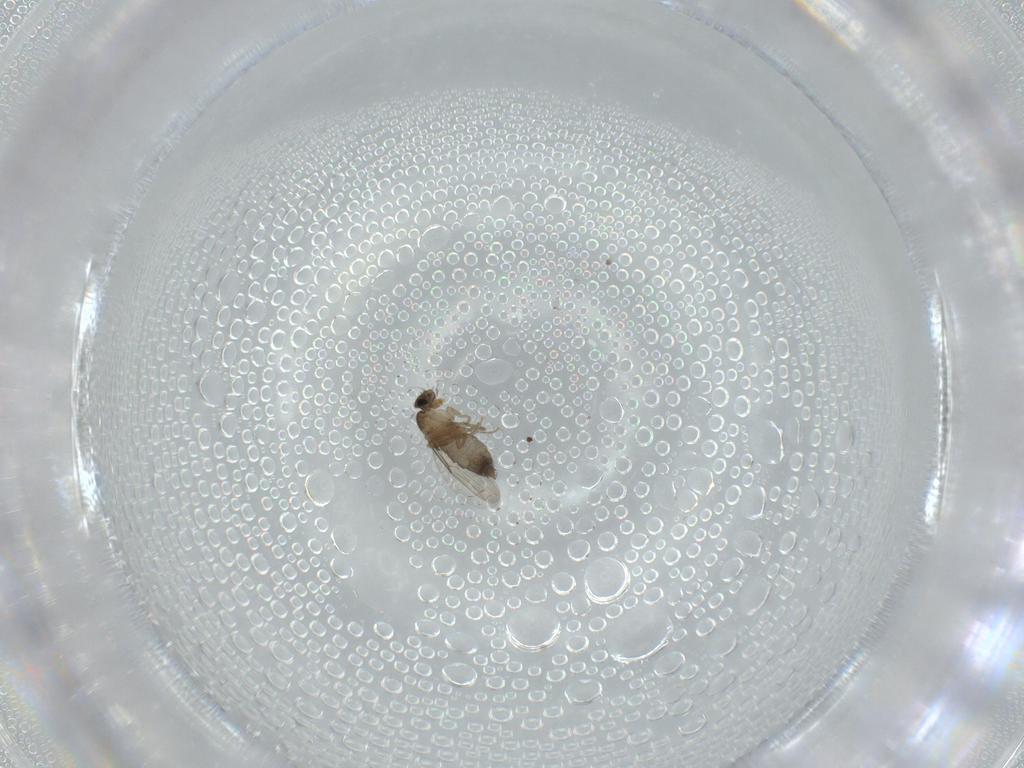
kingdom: Animalia
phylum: Arthropoda
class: Insecta
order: Diptera
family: Phoridae
